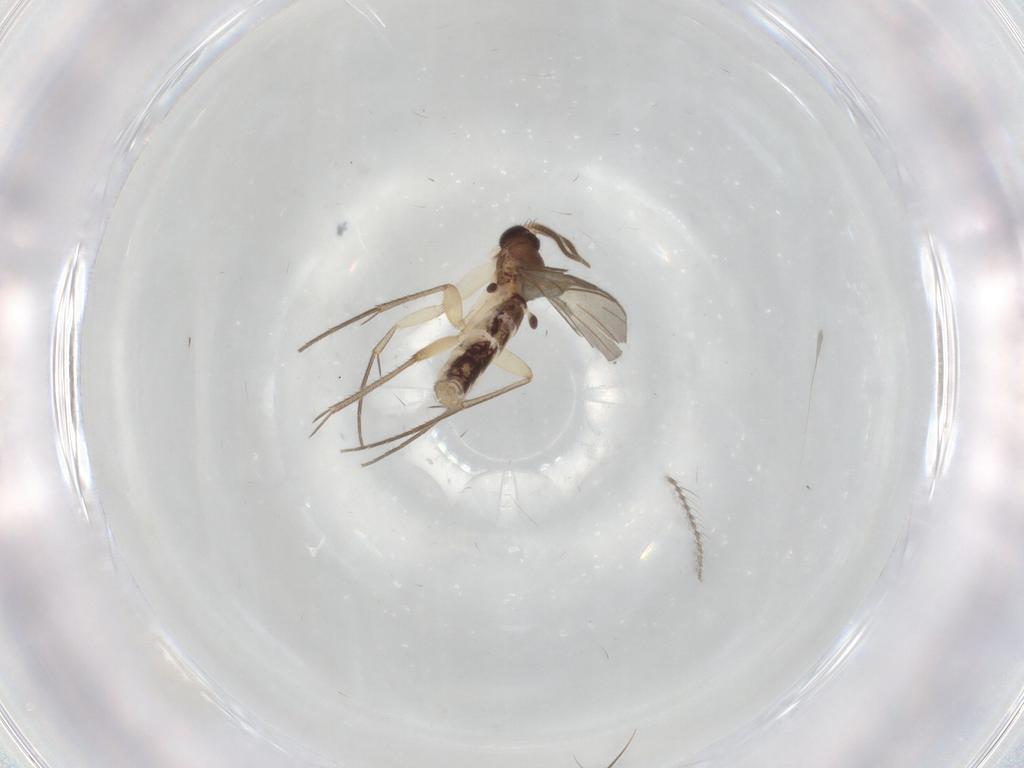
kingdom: Animalia
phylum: Arthropoda
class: Insecta
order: Diptera
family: Mycetophilidae
